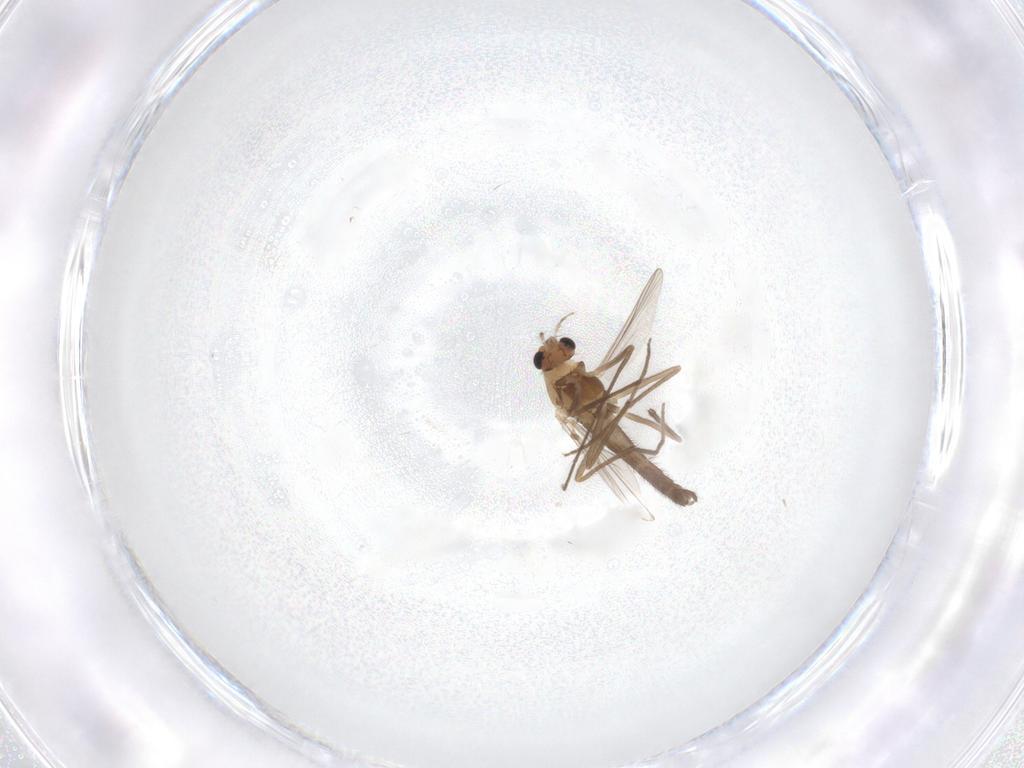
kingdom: Animalia
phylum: Arthropoda
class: Insecta
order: Diptera
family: Chironomidae
